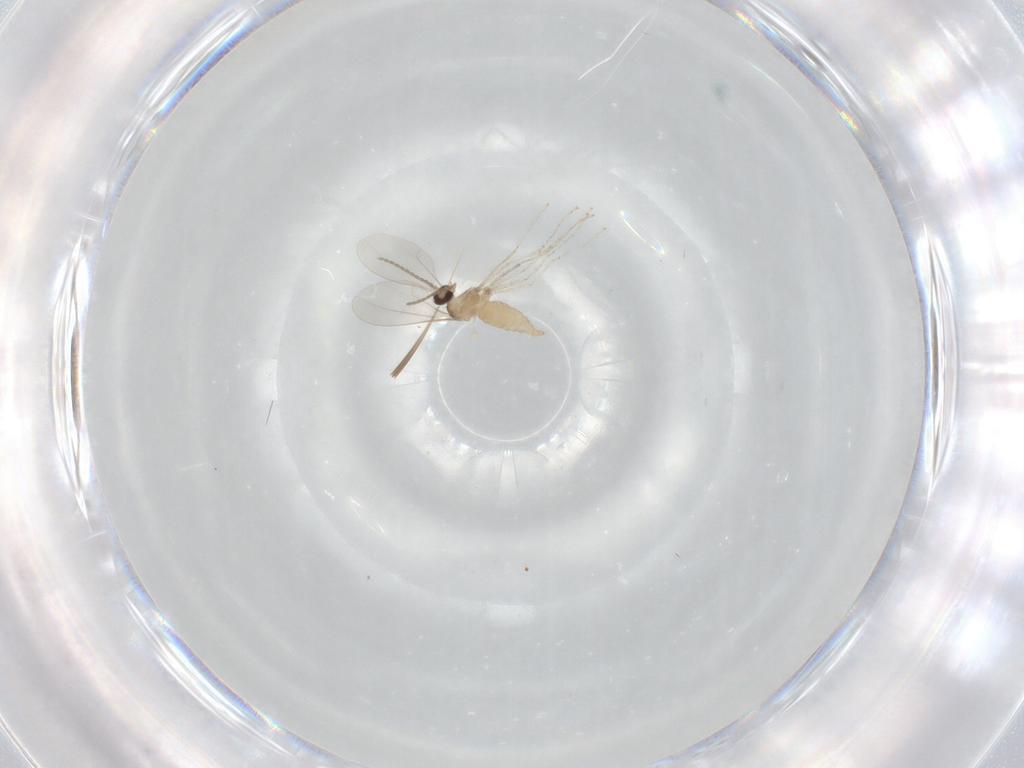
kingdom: Animalia
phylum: Arthropoda
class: Insecta
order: Diptera
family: Cecidomyiidae
